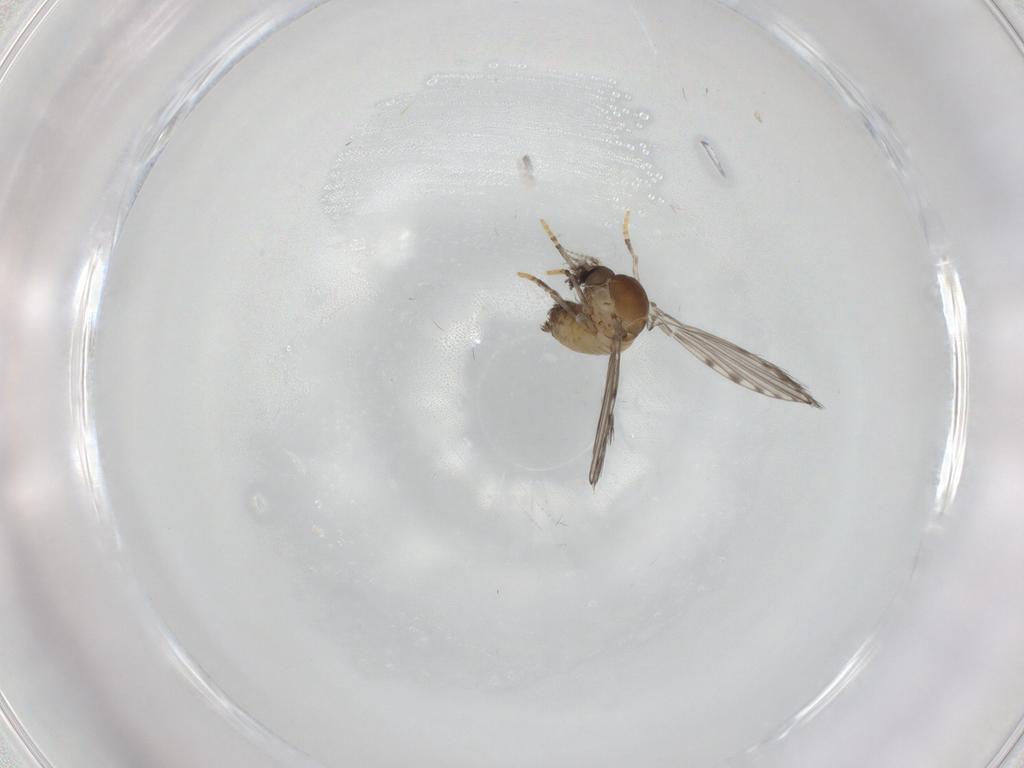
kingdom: Animalia
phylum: Arthropoda
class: Insecta
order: Diptera
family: Psychodidae
